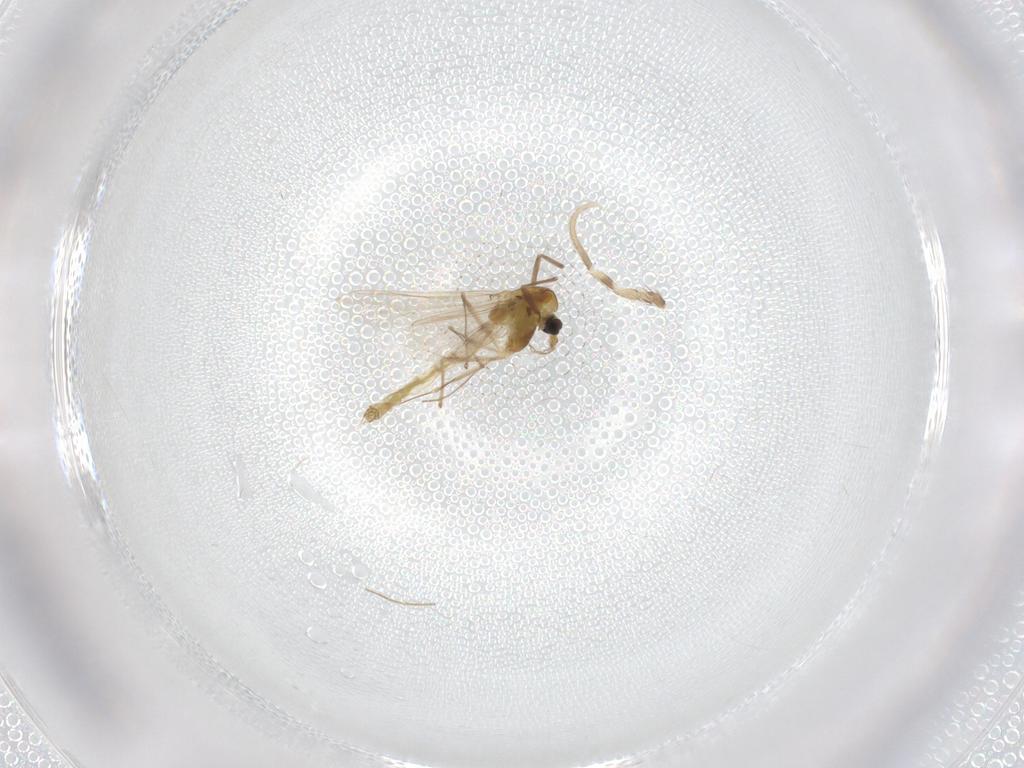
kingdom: Animalia
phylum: Arthropoda
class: Insecta
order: Diptera
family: Chironomidae
